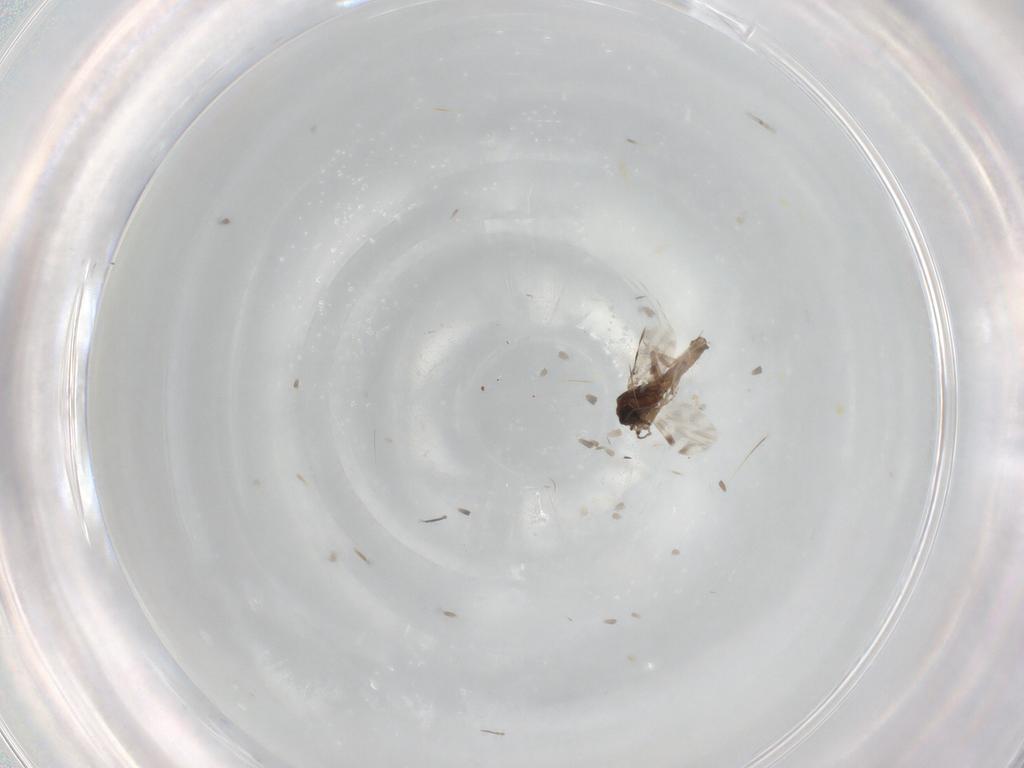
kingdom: Animalia
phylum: Arthropoda
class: Insecta
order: Diptera
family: Ceratopogonidae
